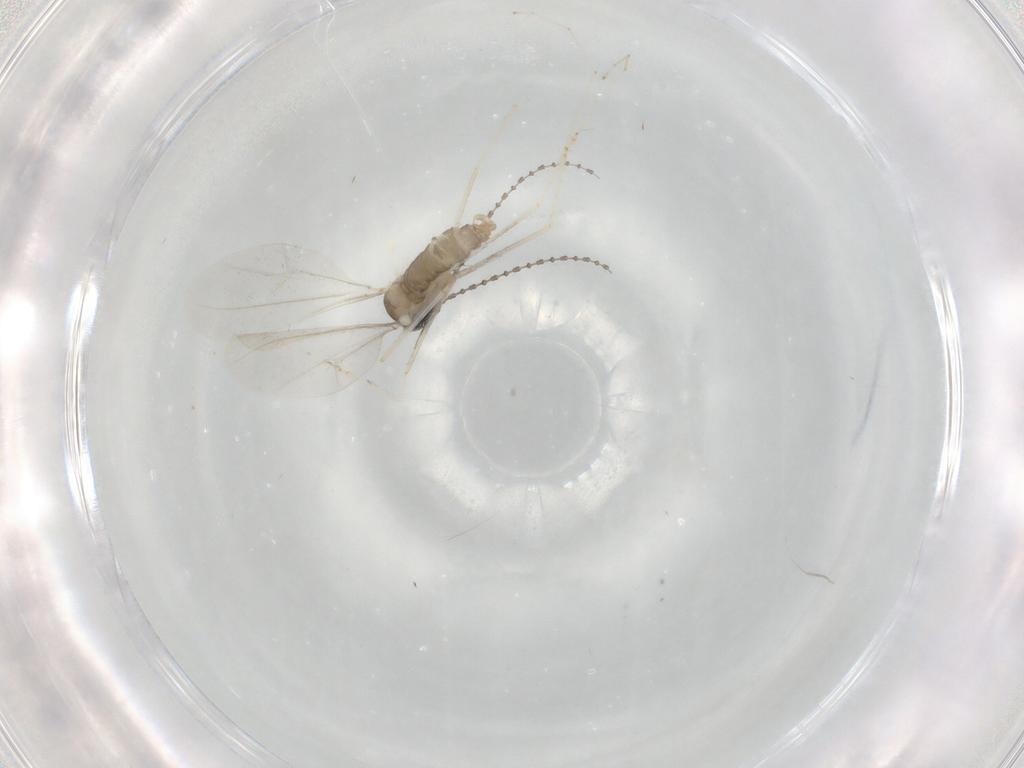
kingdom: Animalia
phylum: Arthropoda
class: Insecta
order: Diptera
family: Cecidomyiidae
